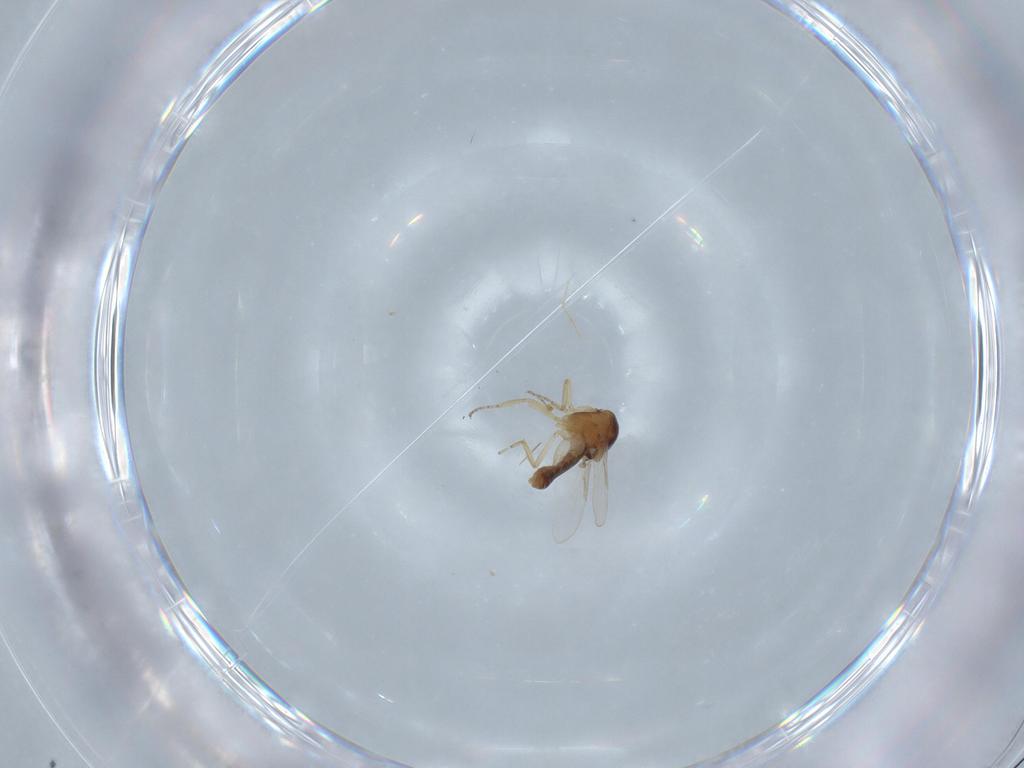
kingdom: Animalia
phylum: Arthropoda
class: Insecta
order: Diptera
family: Ceratopogonidae
